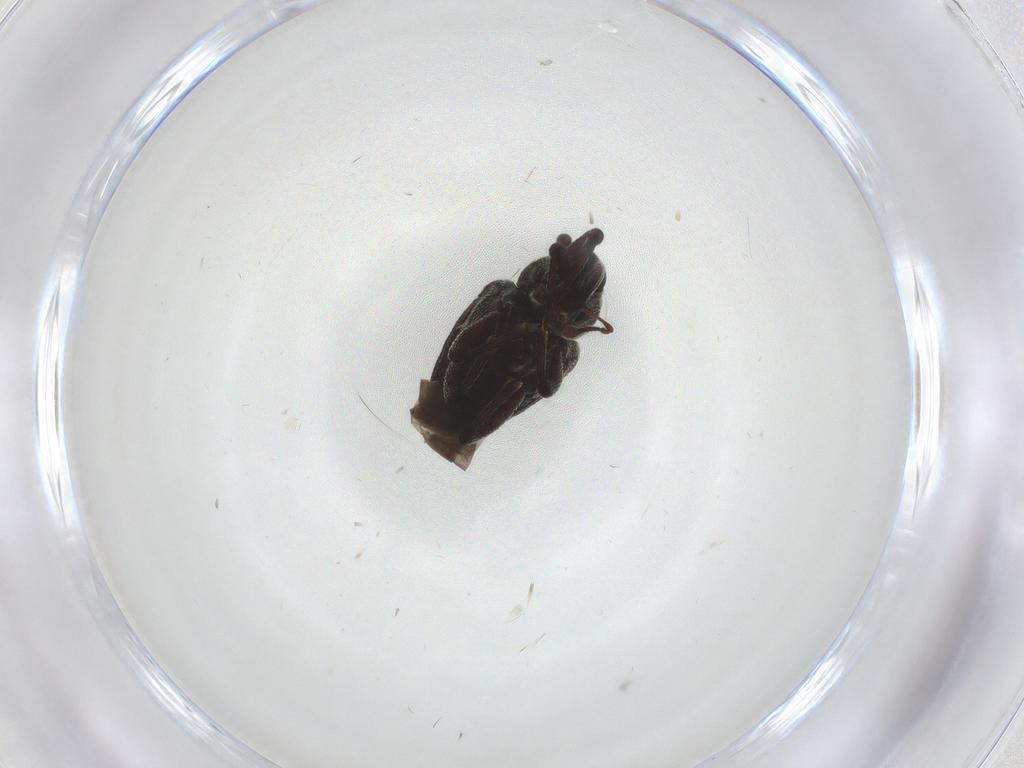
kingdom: Animalia
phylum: Arthropoda
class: Insecta
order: Coleoptera
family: Curculionidae
